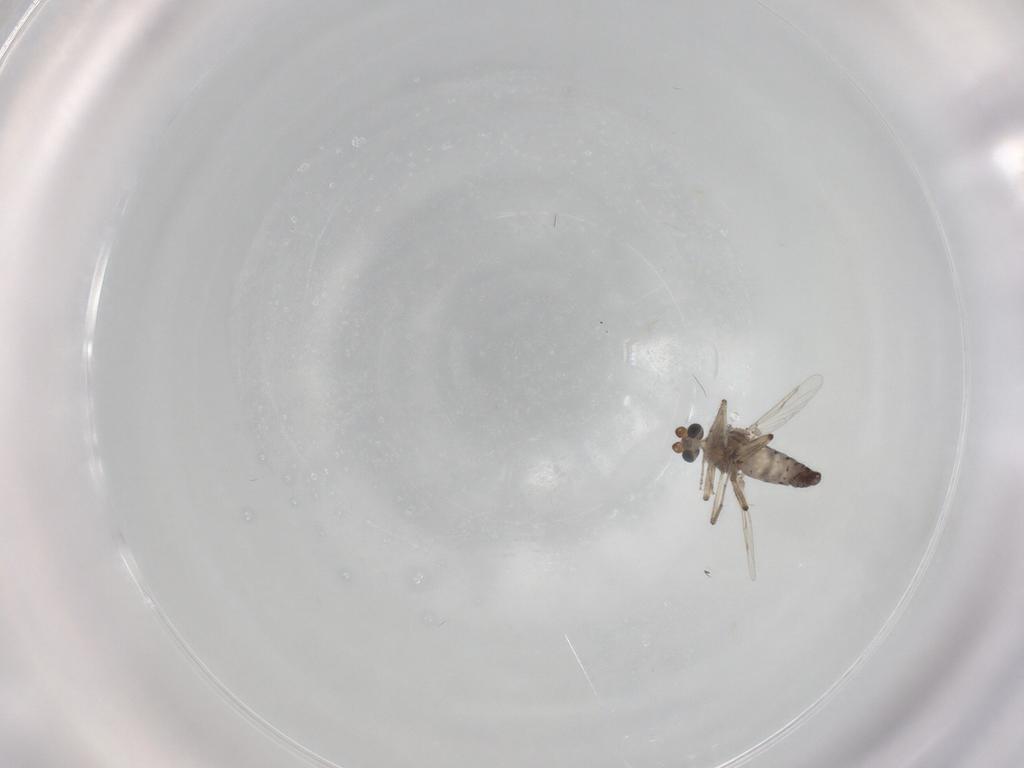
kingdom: Animalia
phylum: Arthropoda
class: Insecta
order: Diptera
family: Ceratopogonidae
